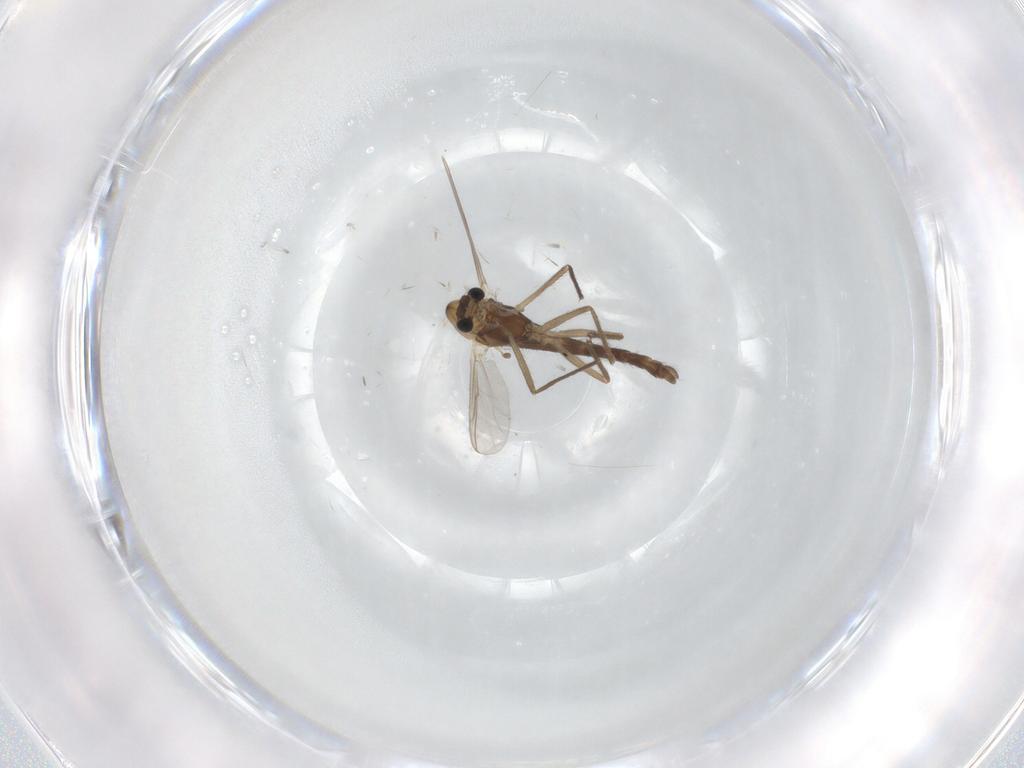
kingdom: Animalia
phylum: Arthropoda
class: Insecta
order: Diptera
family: Chironomidae
